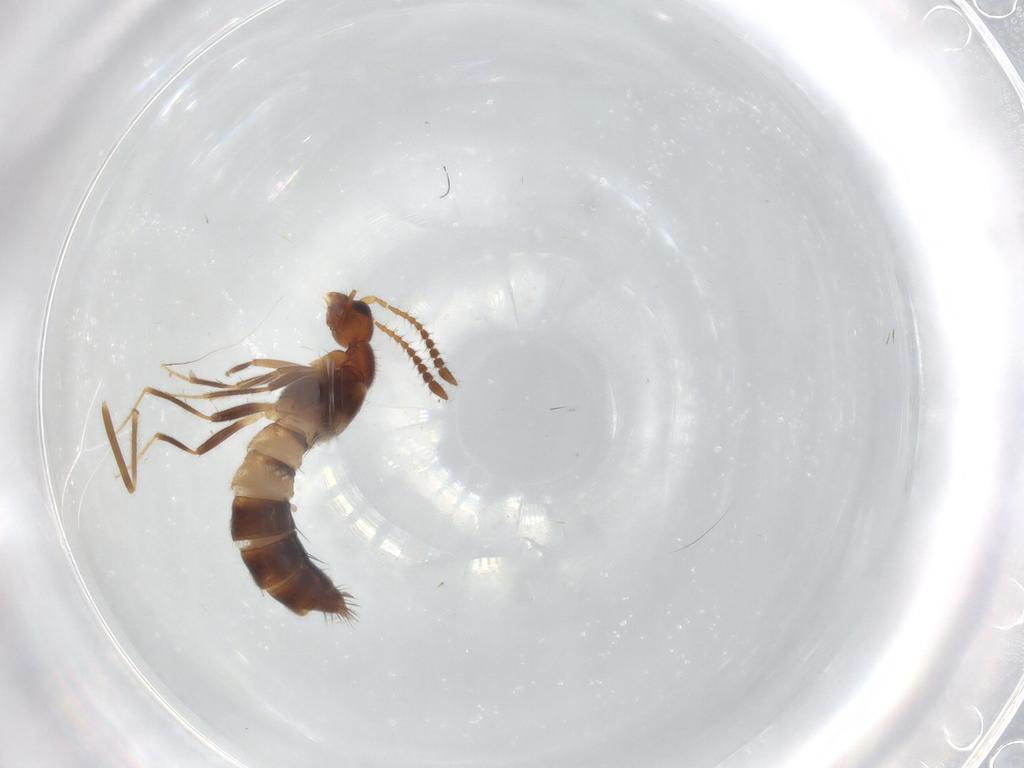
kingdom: Animalia
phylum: Arthropoda
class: Insecta
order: Coleoptera
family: Staphylinidae
